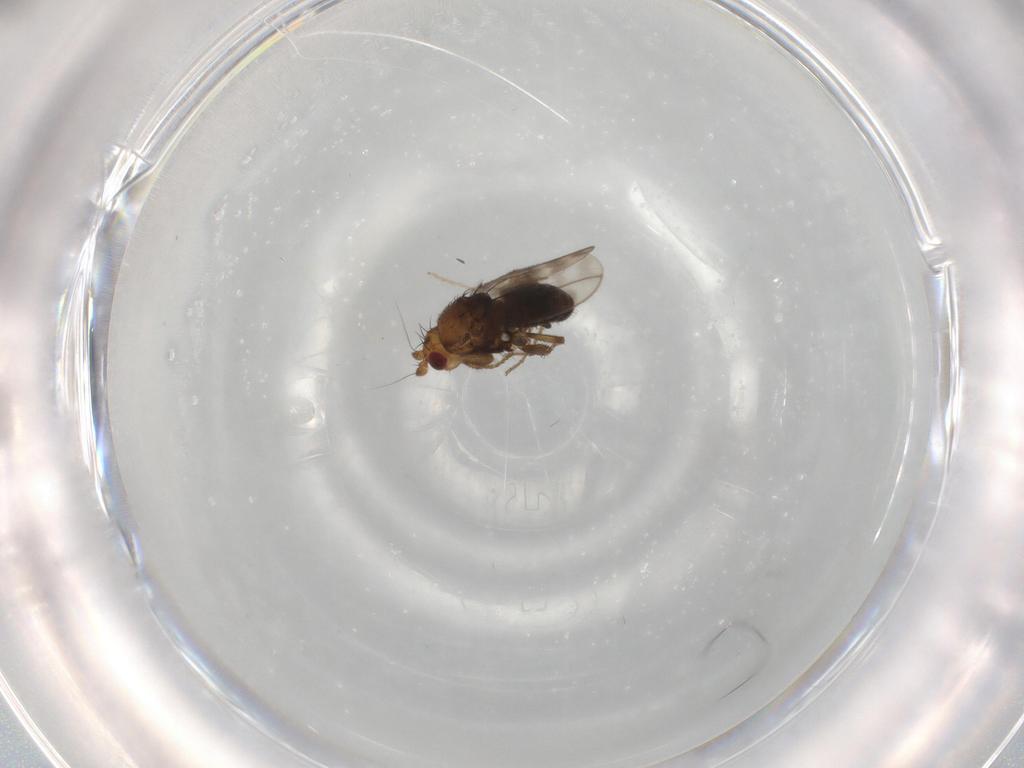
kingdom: Animalia
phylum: Arthropoda
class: Insecta
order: Diptera
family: Sphaeroceridae
